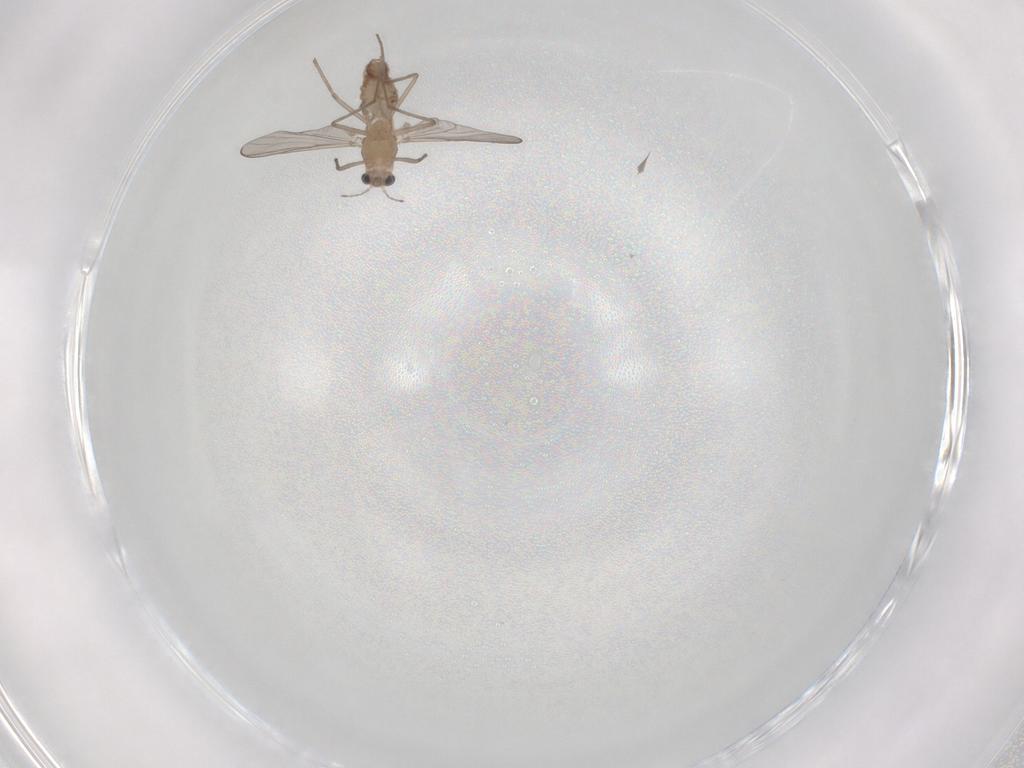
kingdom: Animalia
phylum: Arthropoda
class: Insecta
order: Diptera
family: Chironomidae
